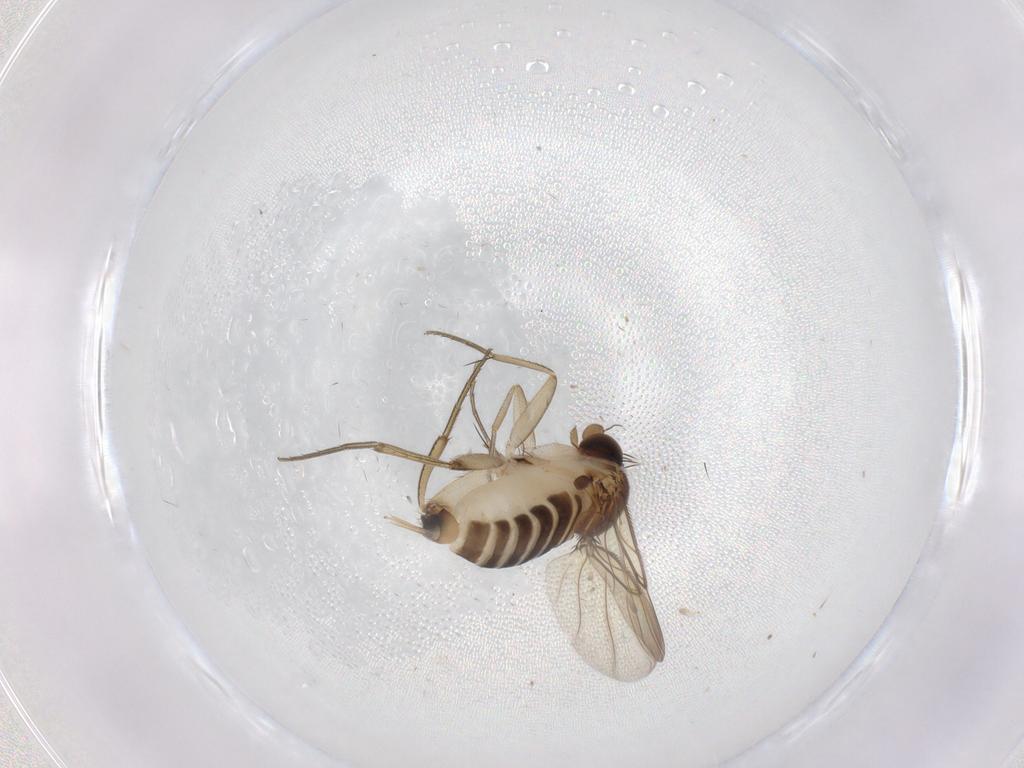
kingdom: Animalia
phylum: Arthropoda
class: Insecta
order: Diptera
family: Phoridae
